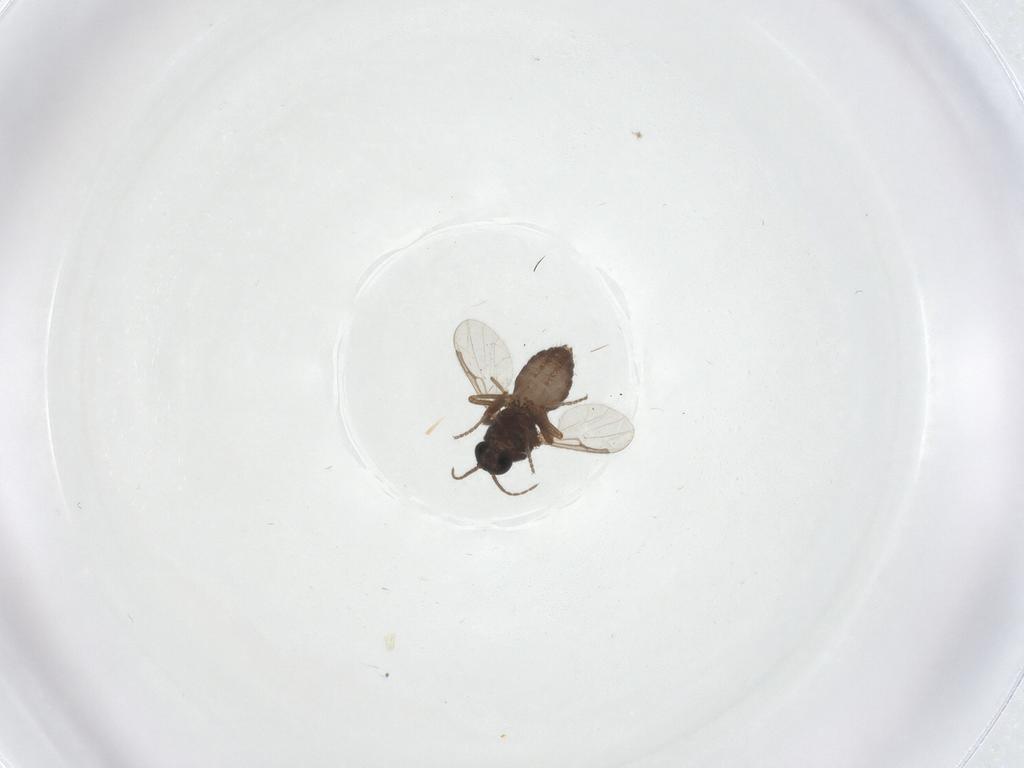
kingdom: Animalia
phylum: Arthropoda
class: Insecta
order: Diptera
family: Ceratopogonidae
